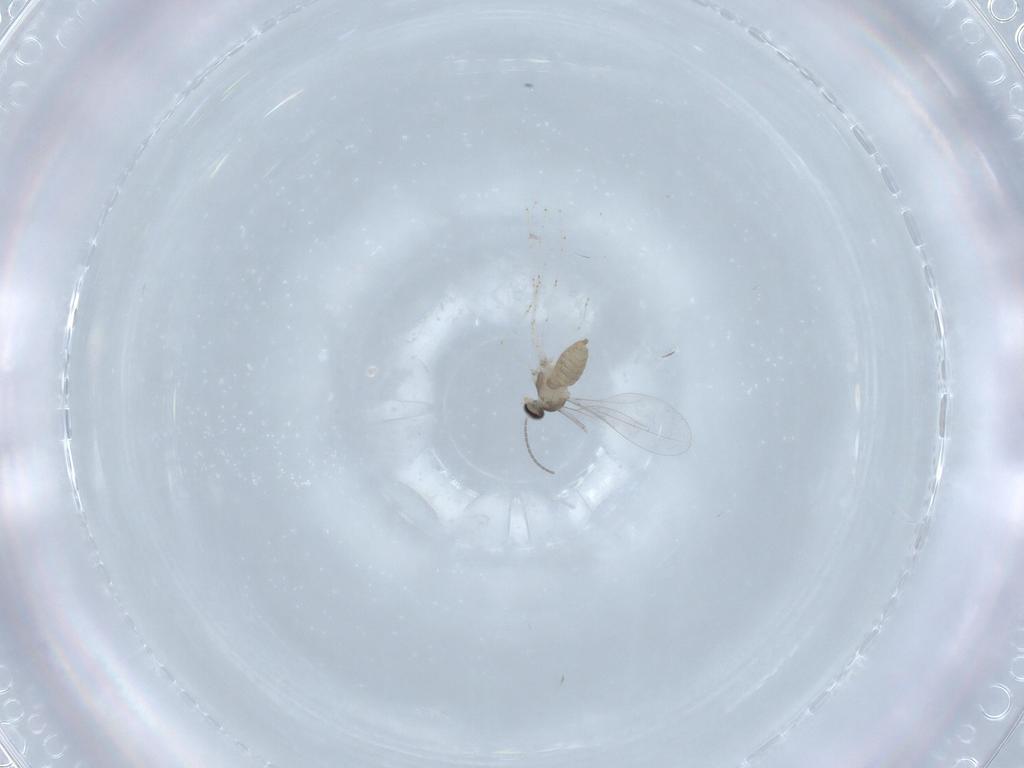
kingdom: Animalia
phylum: Arthropoda
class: Insecta
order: Diptera
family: Cecidomyiidae
